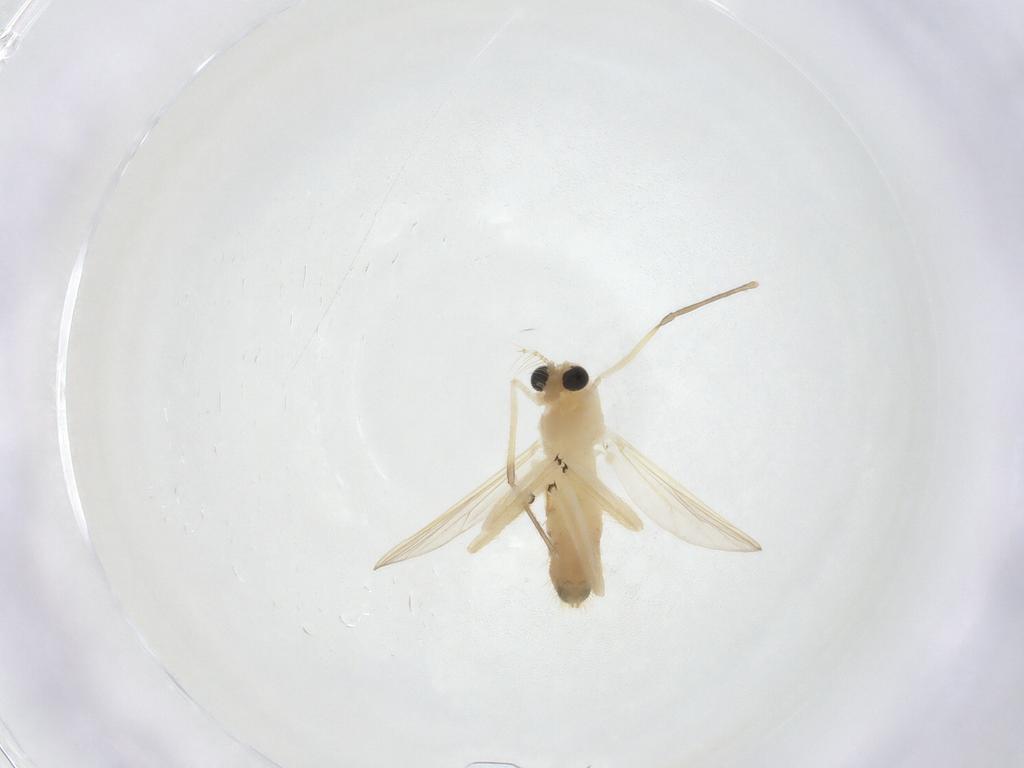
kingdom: Animalia
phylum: Arthropoda
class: Insecta
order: Diptera
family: Chironomidae
